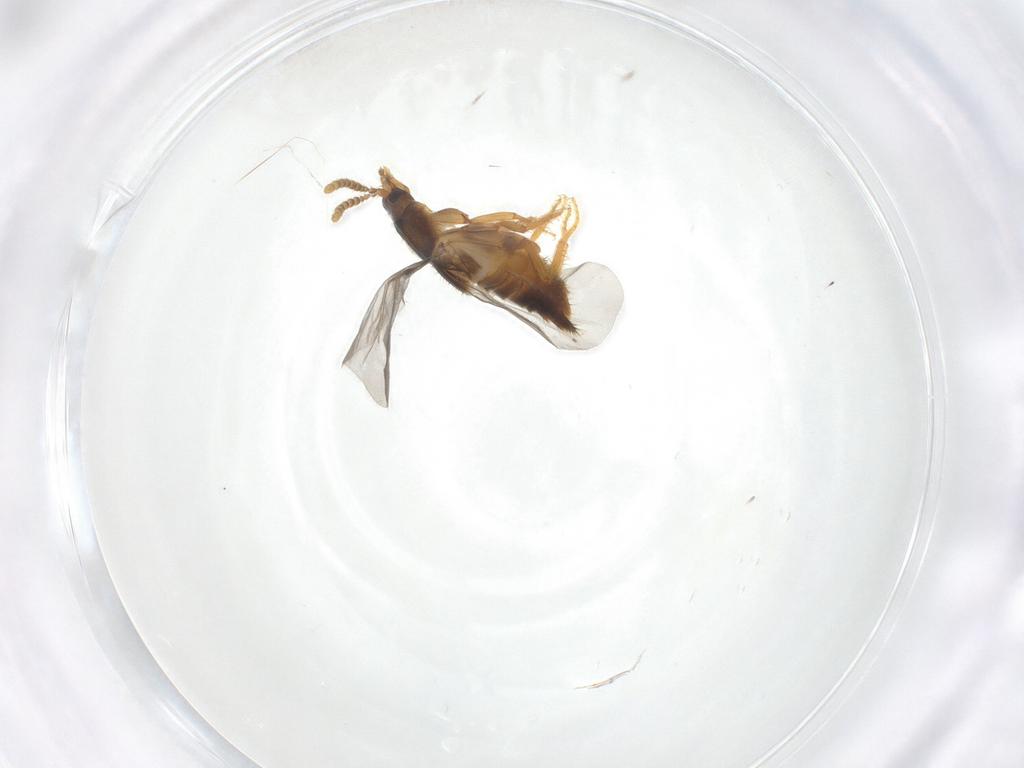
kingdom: Animalia
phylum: Arthropoda
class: Insecta
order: Coleoptera
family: Staphylinidae
